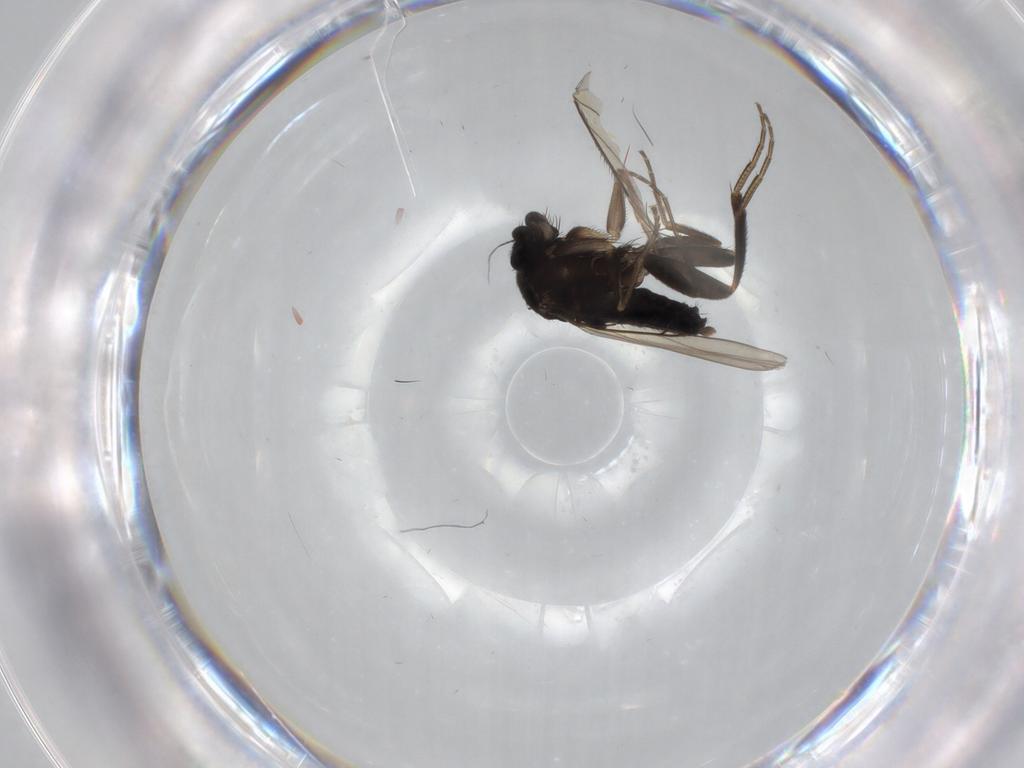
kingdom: Animalia
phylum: Arthropoda
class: Insecta
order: Diptera
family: Phoridae
